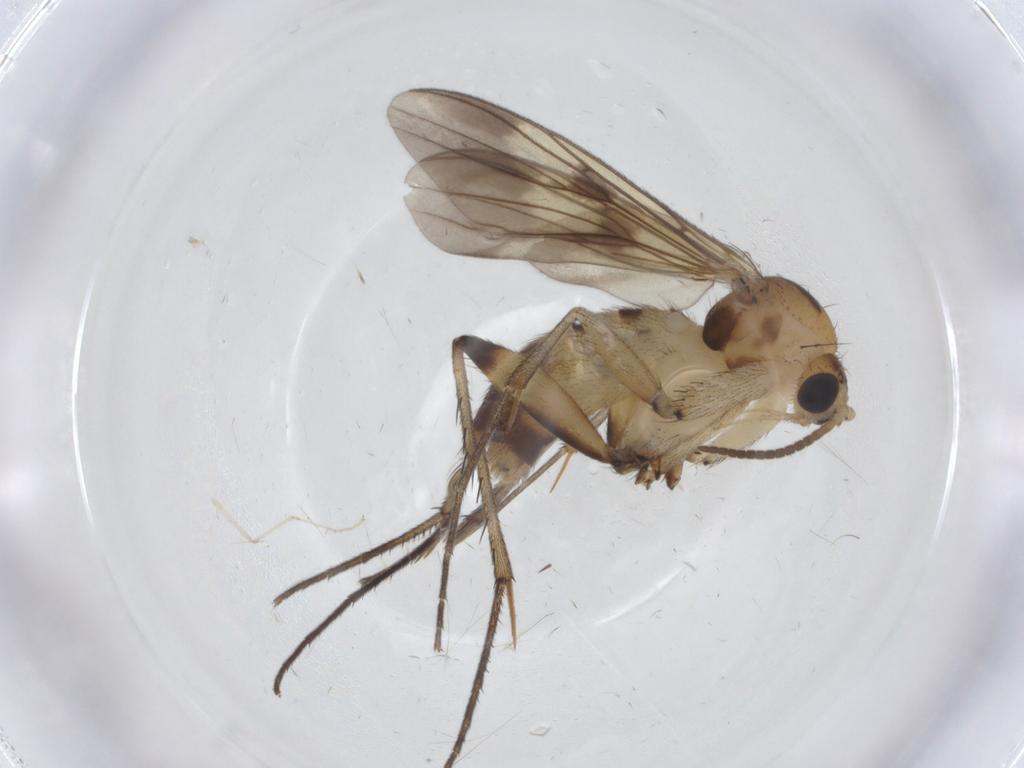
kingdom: Animalia
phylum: Arthropoda
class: Insecta
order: Diptera
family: Mycetophilidae
